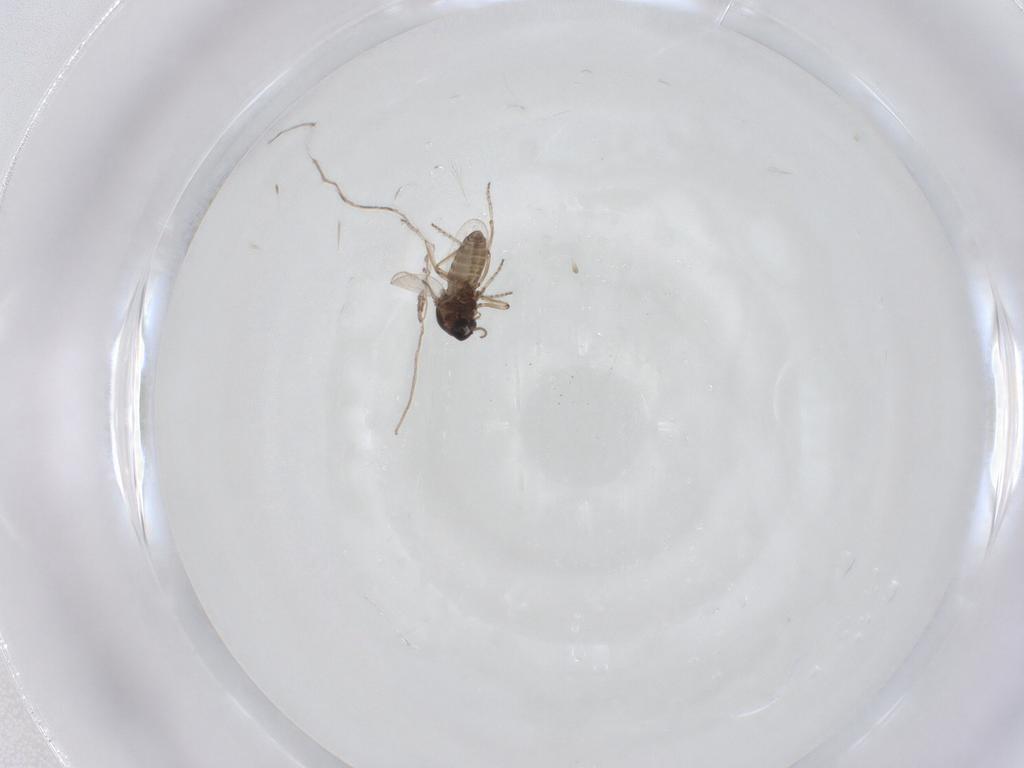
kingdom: Animalia
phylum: Arthropoda
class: Insecta
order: Diptera
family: Ceratopogonidae
